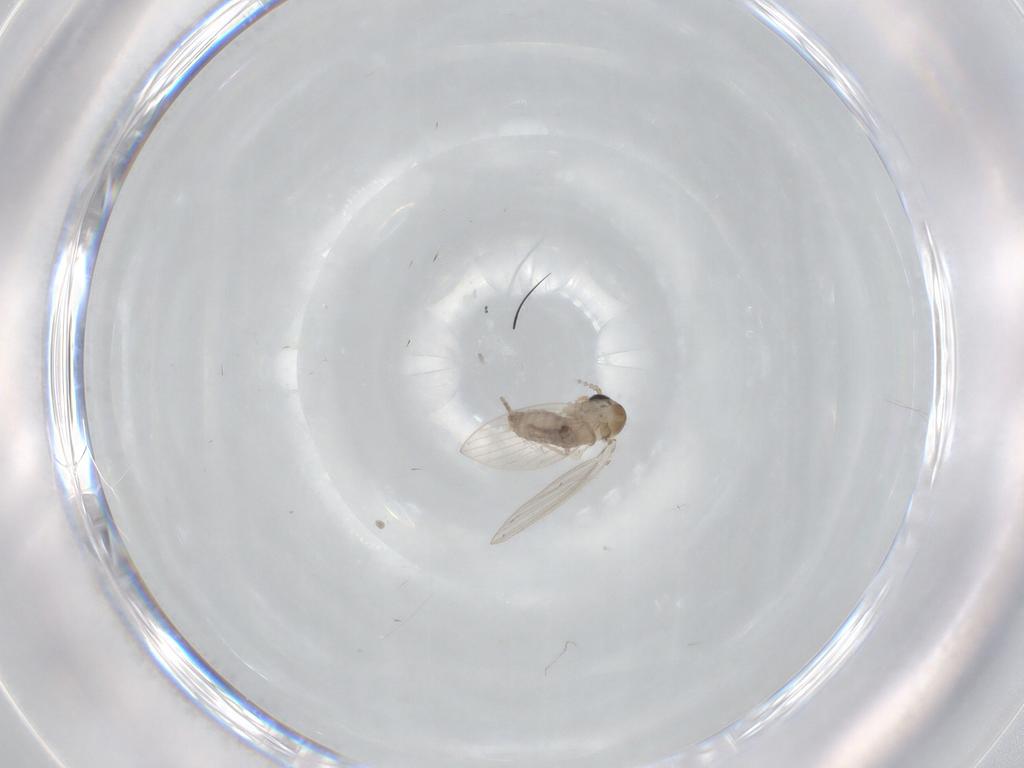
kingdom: Animalia
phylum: Arthropoda
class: Insecta
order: Diptera
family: Psychodidae
